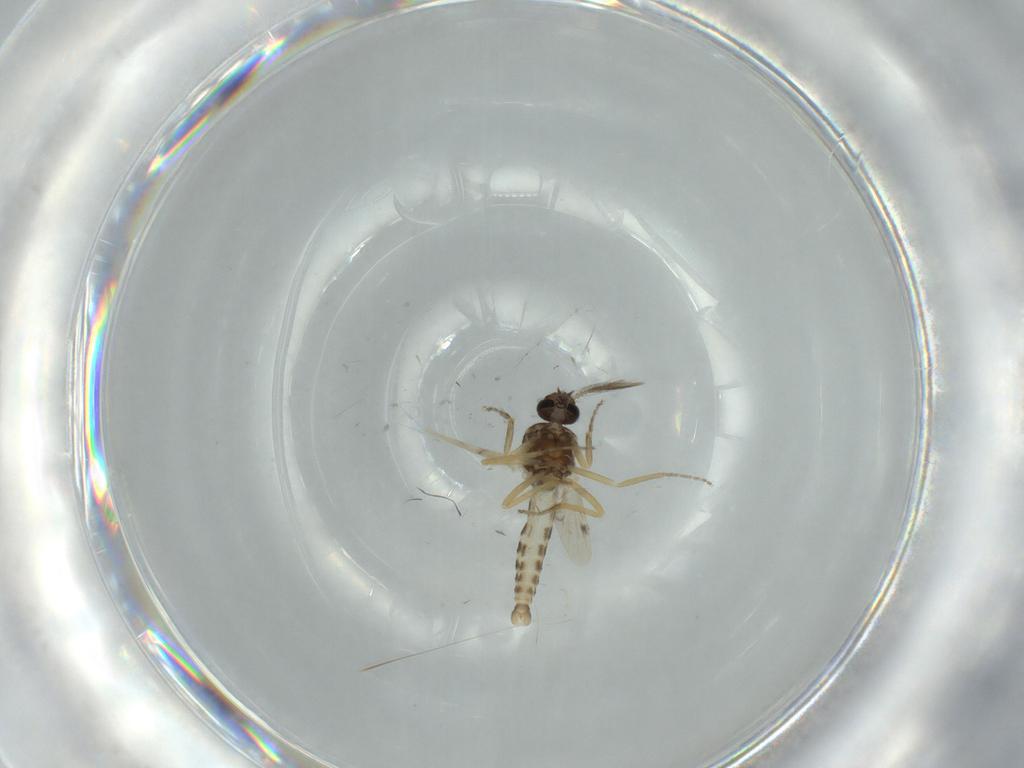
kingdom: Animalia
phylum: Arthropoda
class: Insecta
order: Diptera
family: Ceratopogonidae
